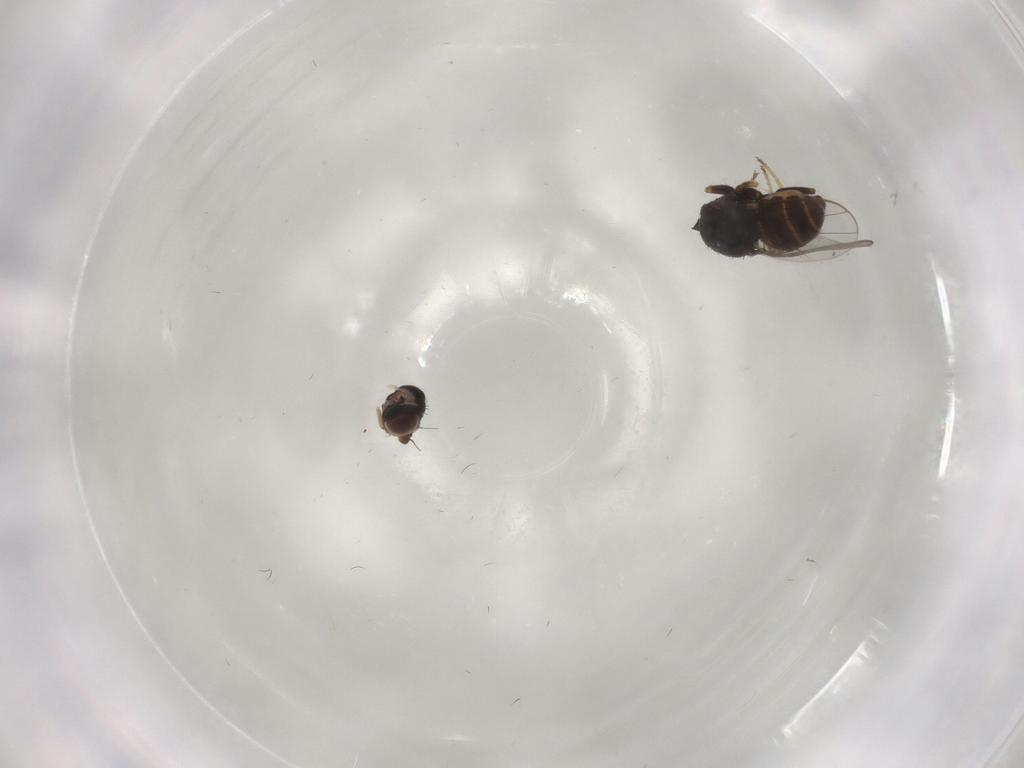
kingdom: Animalia
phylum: Arthropoda
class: Insecta
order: Diptera
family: Chloropidae
